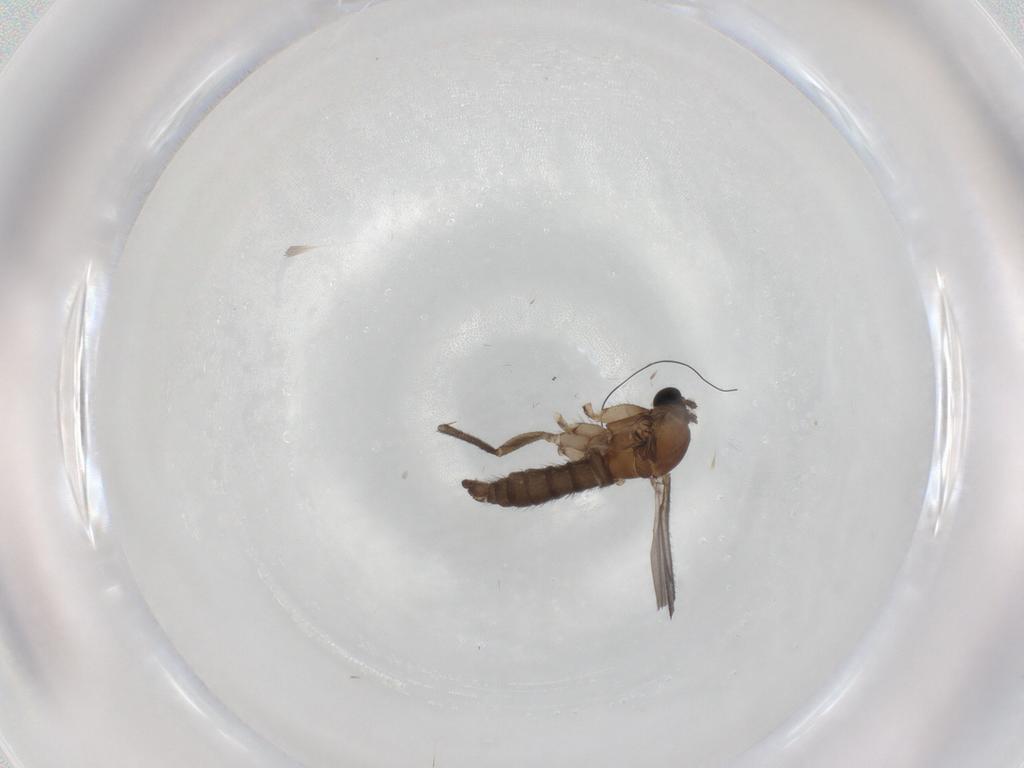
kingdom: Animalia
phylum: Arthropoda
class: Insecta
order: Diptera
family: Sciaridae
